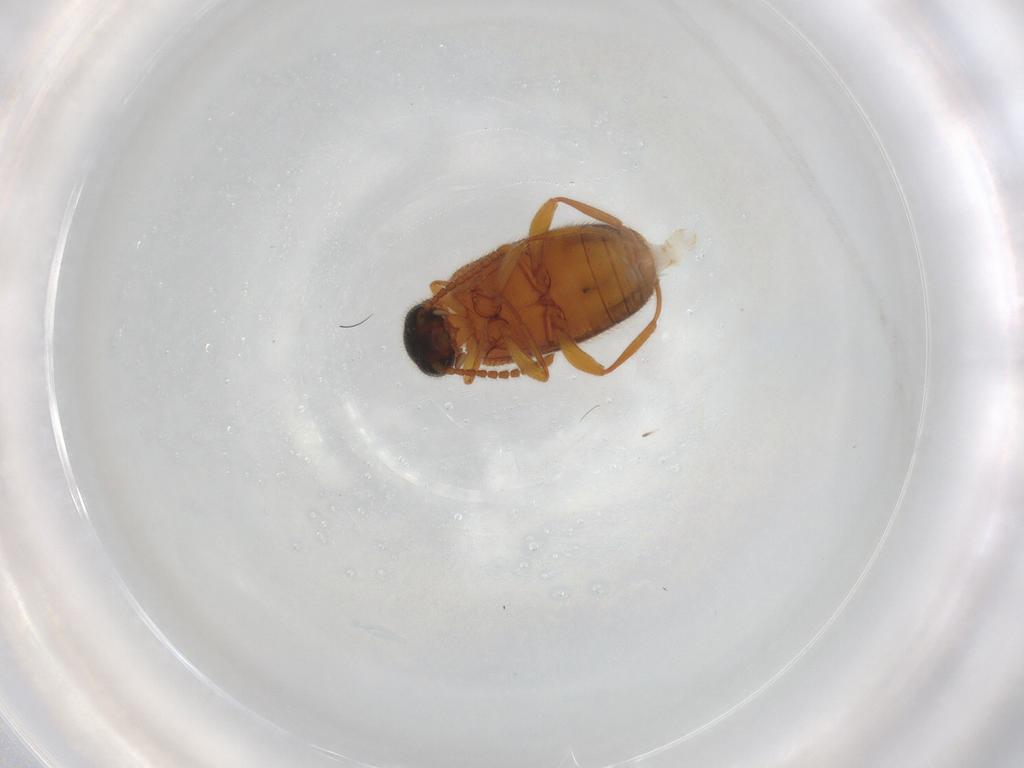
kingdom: Animalia
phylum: Arthropoda
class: Insecta
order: Coleoptera
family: Aderidae
